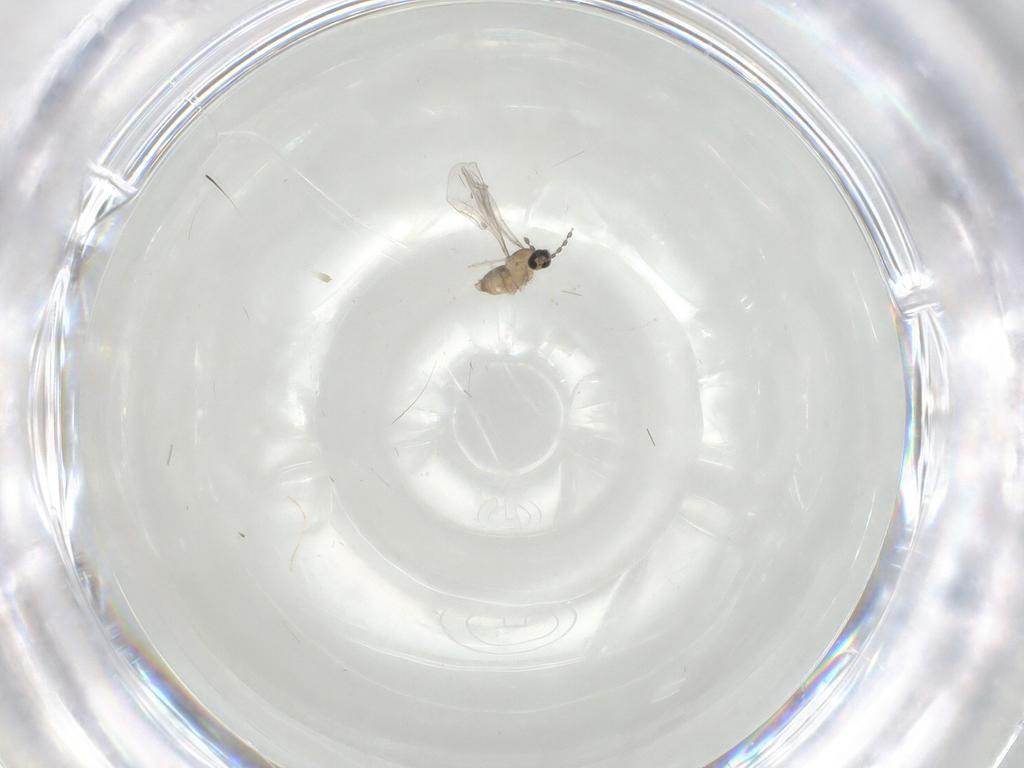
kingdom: Animalia
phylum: Arthropoda
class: Insecta
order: Diptera
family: Cecidomyiidae
